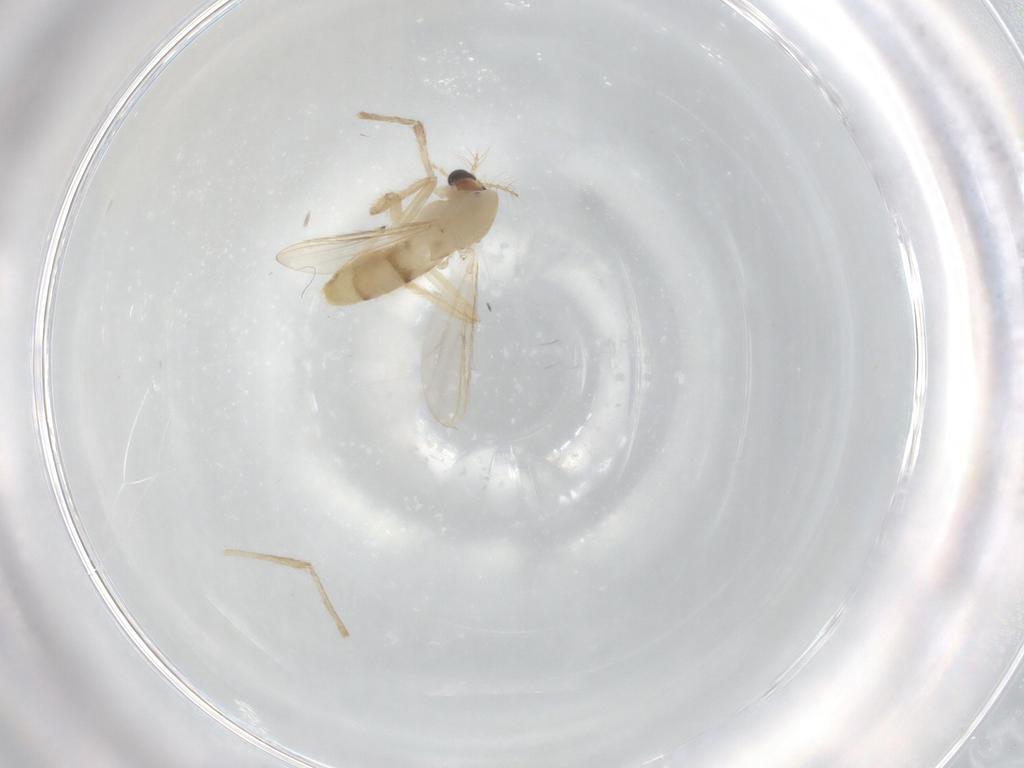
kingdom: Animalia
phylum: Arthropoda
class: Insecta
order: Diptera
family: Chironomidae
